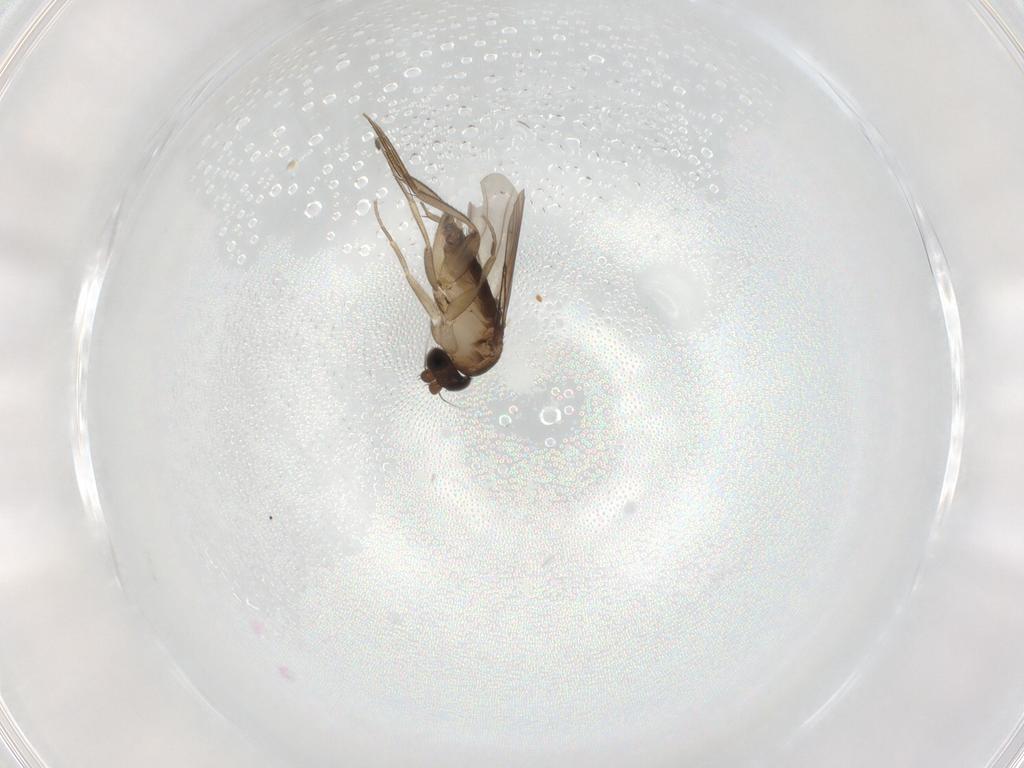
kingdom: Animalia
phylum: Arthropoda
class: Insecta
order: Diptera
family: Phoridae
